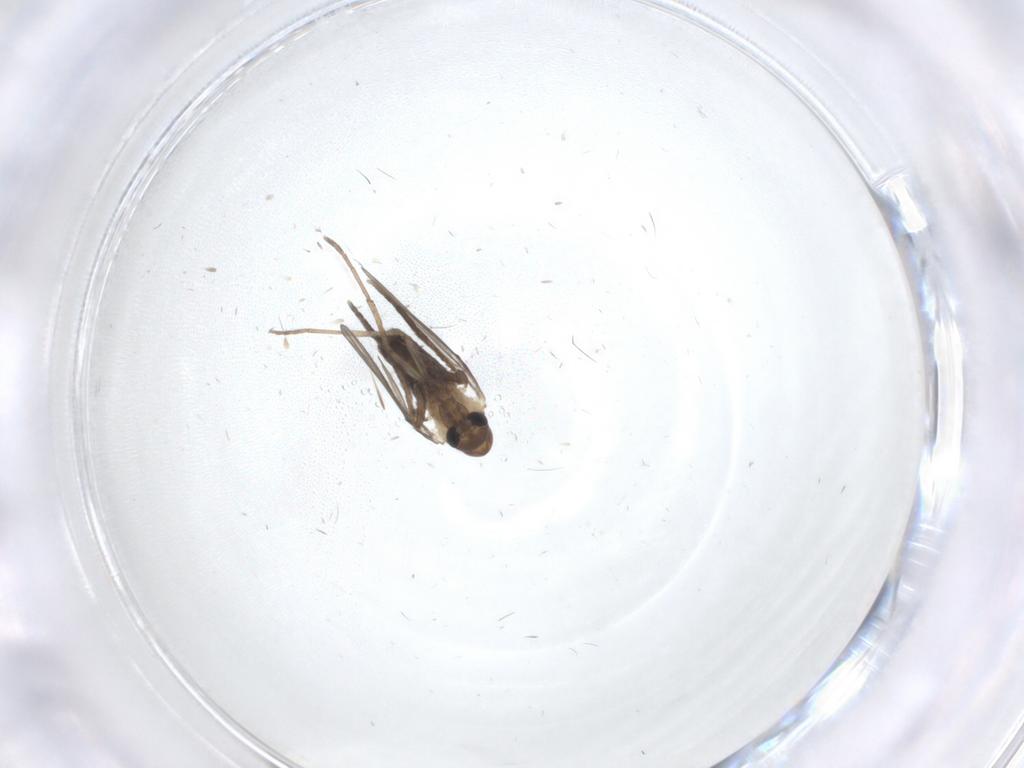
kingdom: Animalia
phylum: Arthropoda
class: Insecta
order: Diptera
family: Psychodidae
